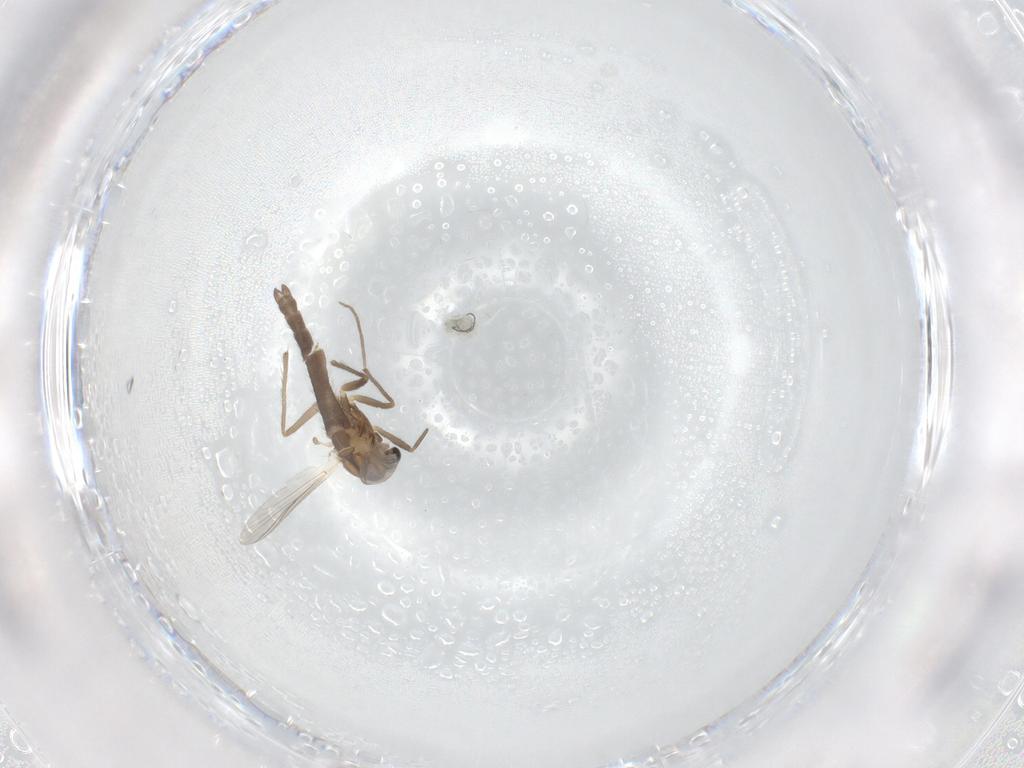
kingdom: Animalia
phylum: Arthropoda
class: Insecta
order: Diptera
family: Chironomidae
